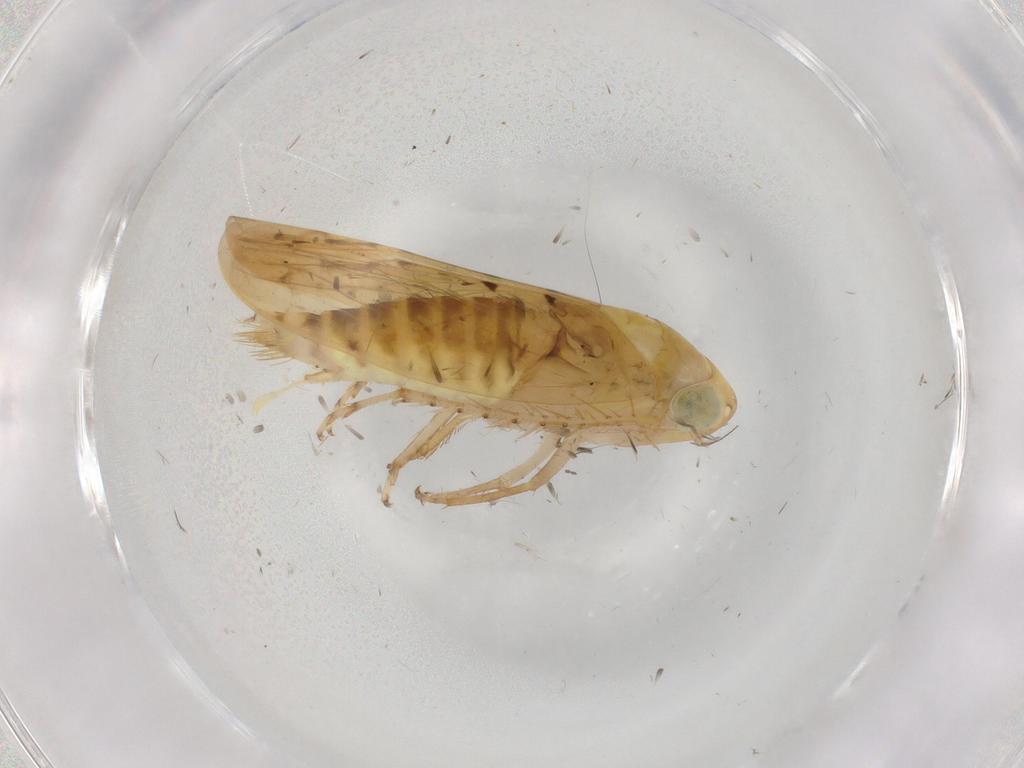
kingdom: Animalia
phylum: Arthropoda
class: Insecta
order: Hemiptera
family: Cicadellidae
